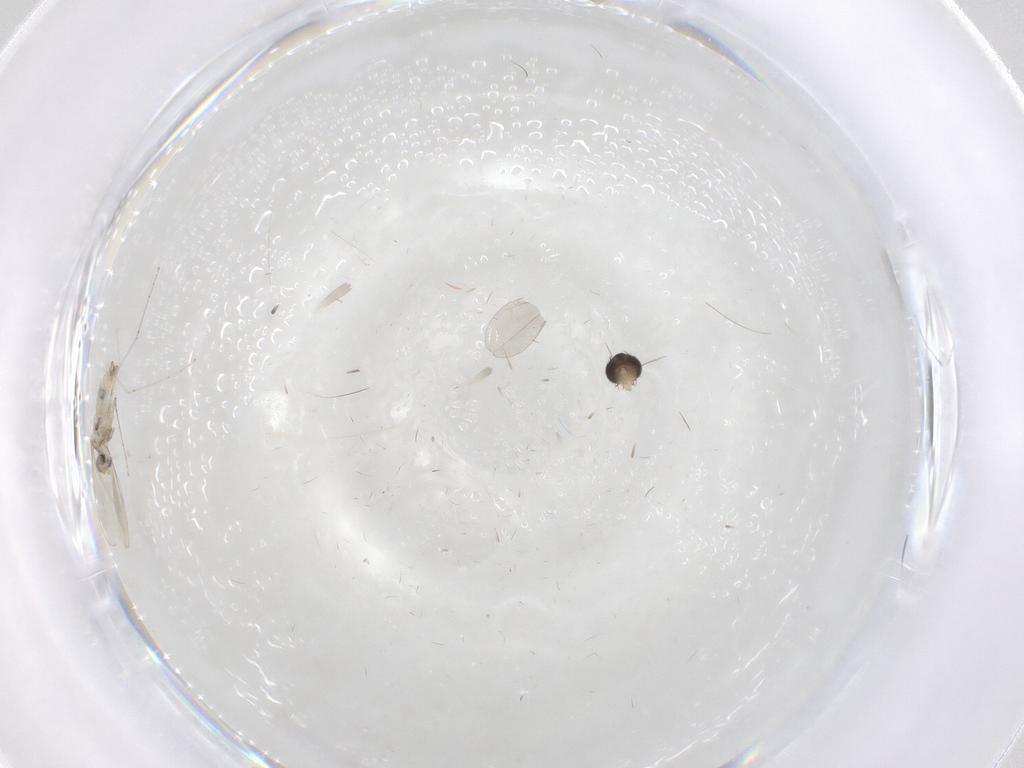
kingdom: Animalia
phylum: Arthropoda
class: Insecta
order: Diptera
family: Phoridae
